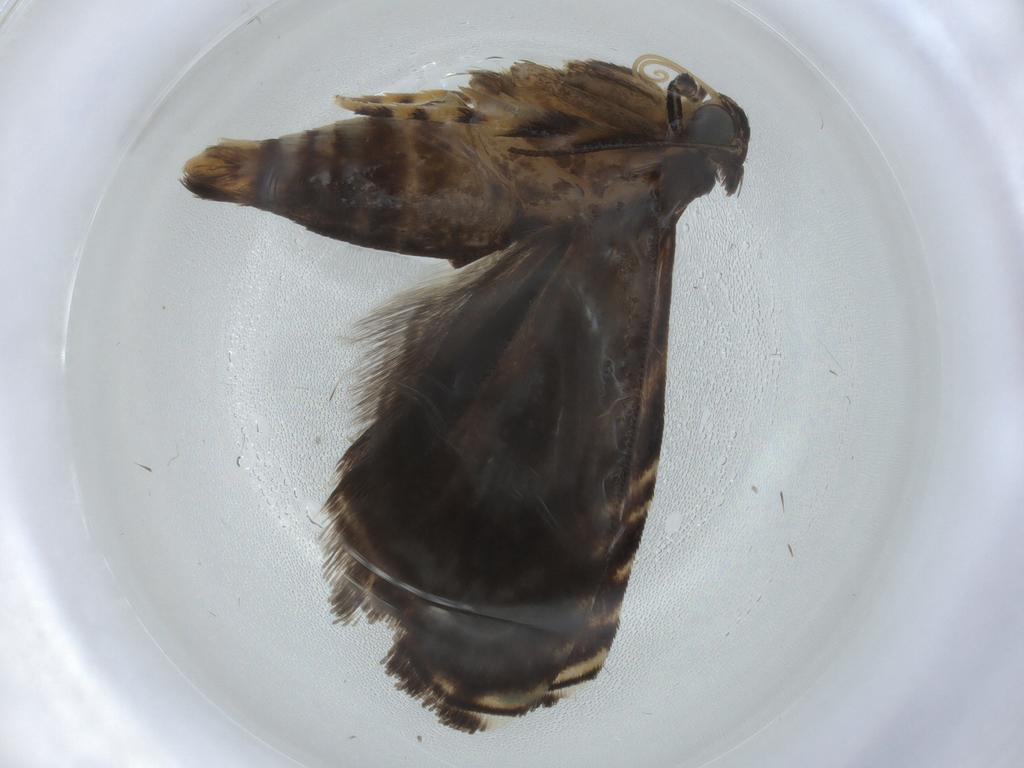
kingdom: Animalia
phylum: Arthropoda
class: Insecta
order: Lepidoptera
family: Immidae
